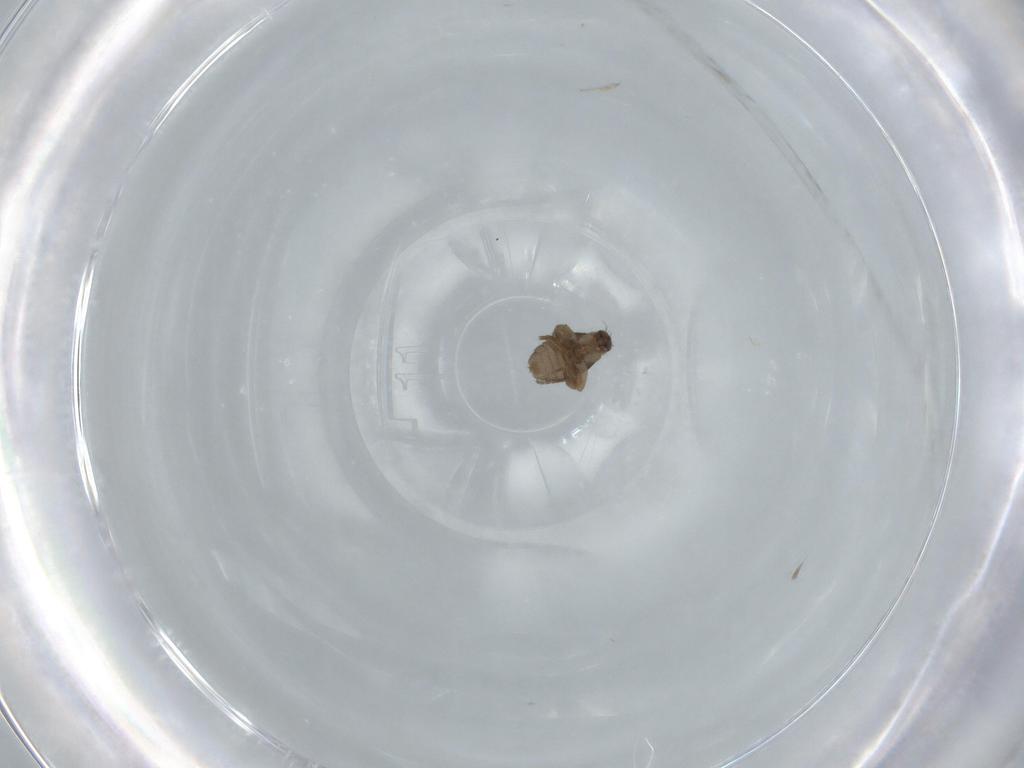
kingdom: Animalia
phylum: Arthropoda
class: Insecta
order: Diptera
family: Phoridae
